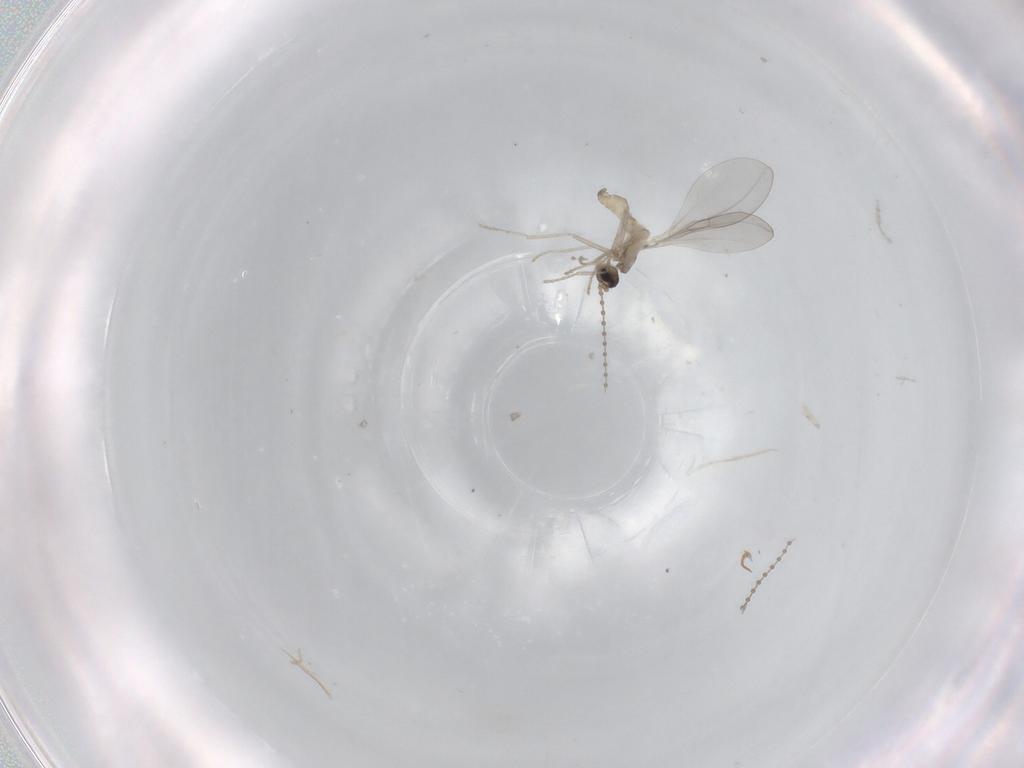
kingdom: Animalia
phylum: Arthropoda
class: Insecta
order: Diptera
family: Cecidomyiidae
